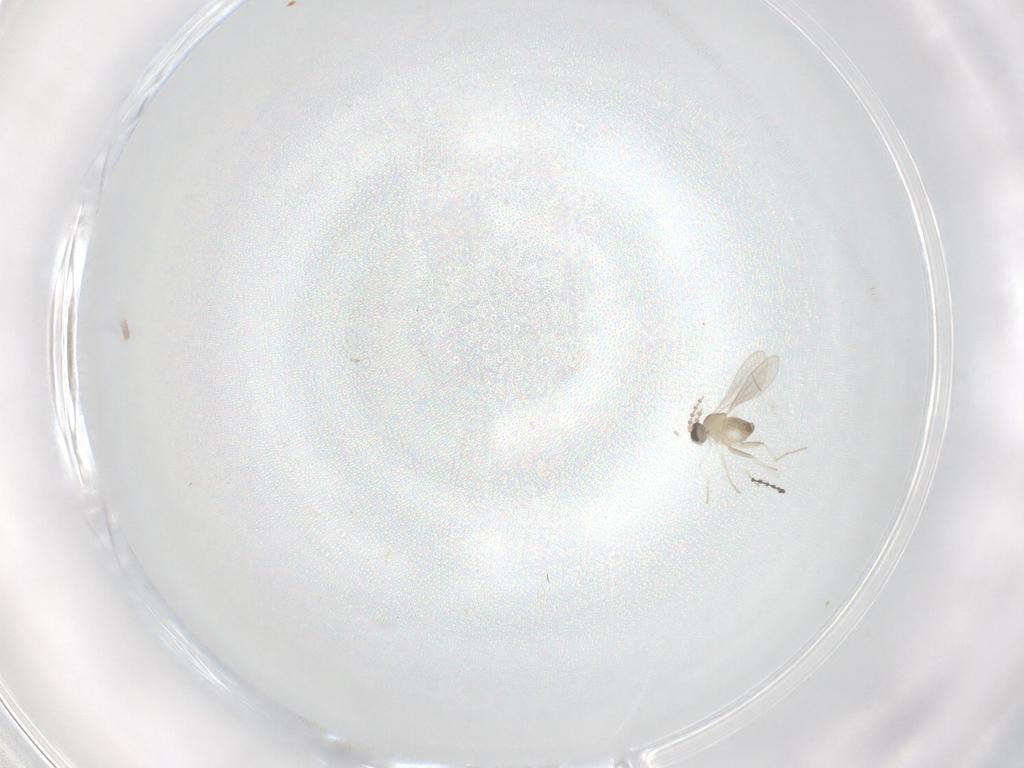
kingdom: Animalia
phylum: Arthropoda
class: Insecta
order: Diptera
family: Cecidomyiidae
